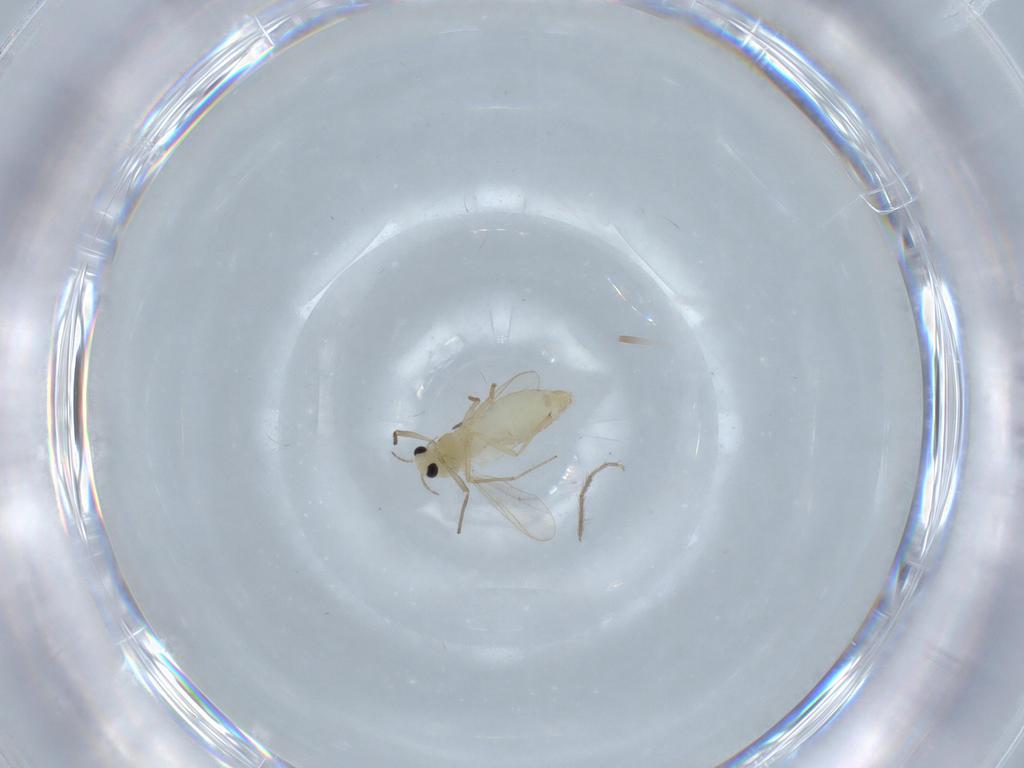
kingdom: Animalia
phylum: Arthropoda
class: Insecta
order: Diptera
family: Chironomidae
